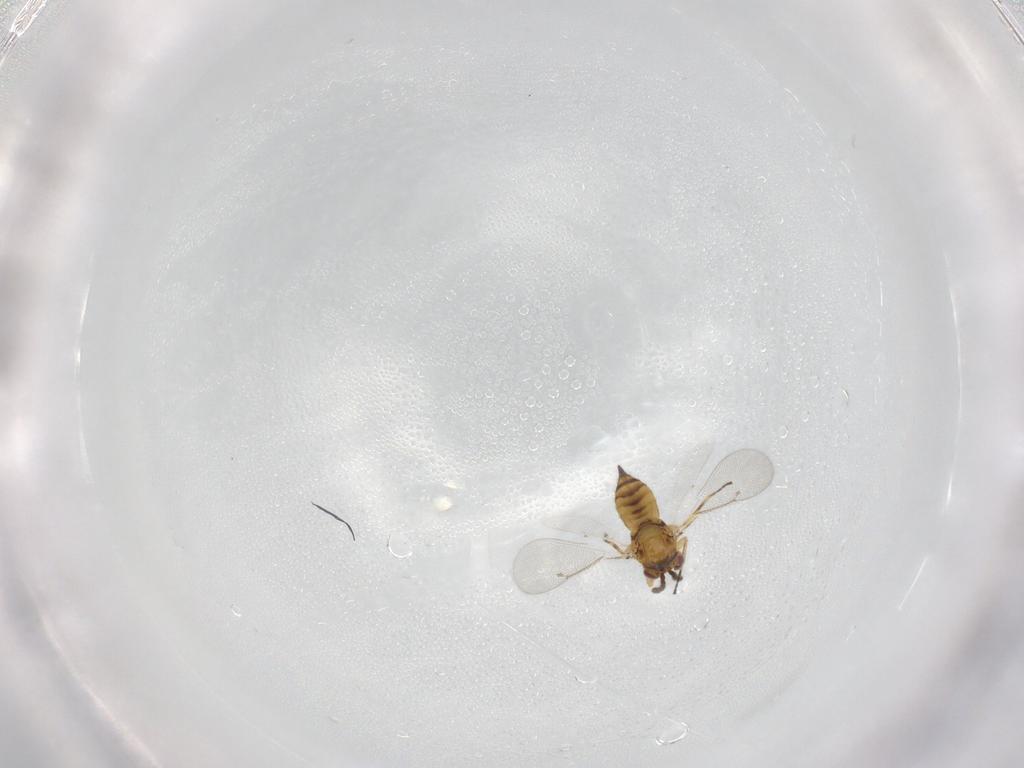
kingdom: Animalia
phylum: Arthropoda
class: Insecta
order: Hymenoptera
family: Eulophidae
